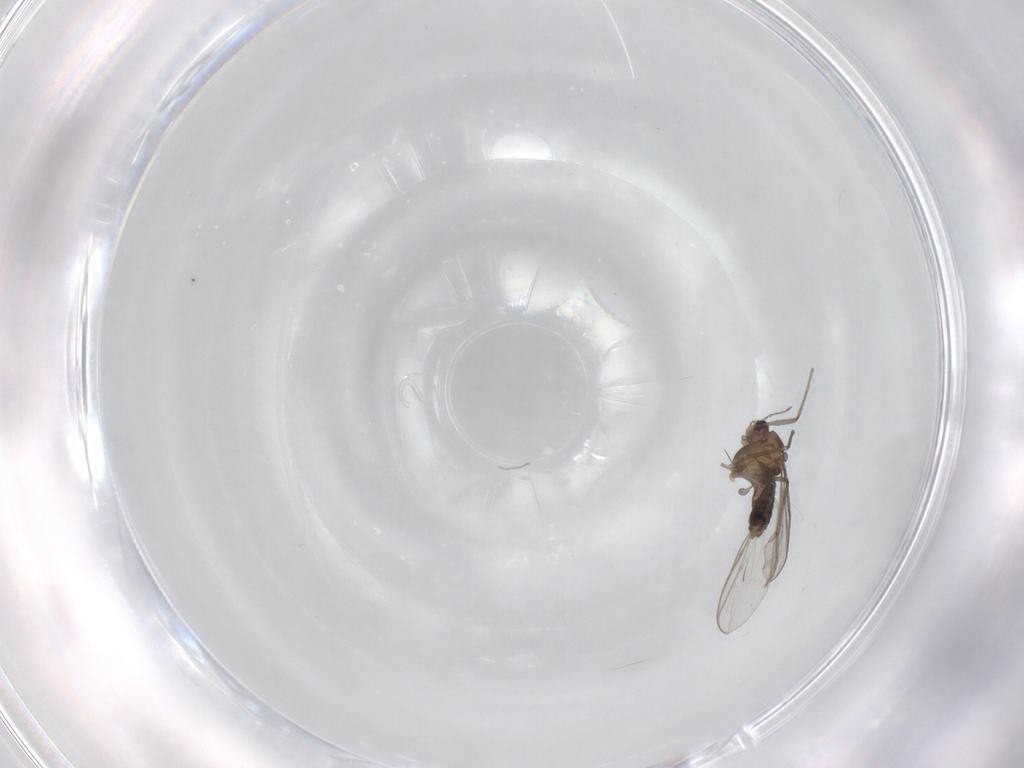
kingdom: Animalia
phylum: Arthropoda
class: Insecta
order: Diptera
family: Chironomidae
